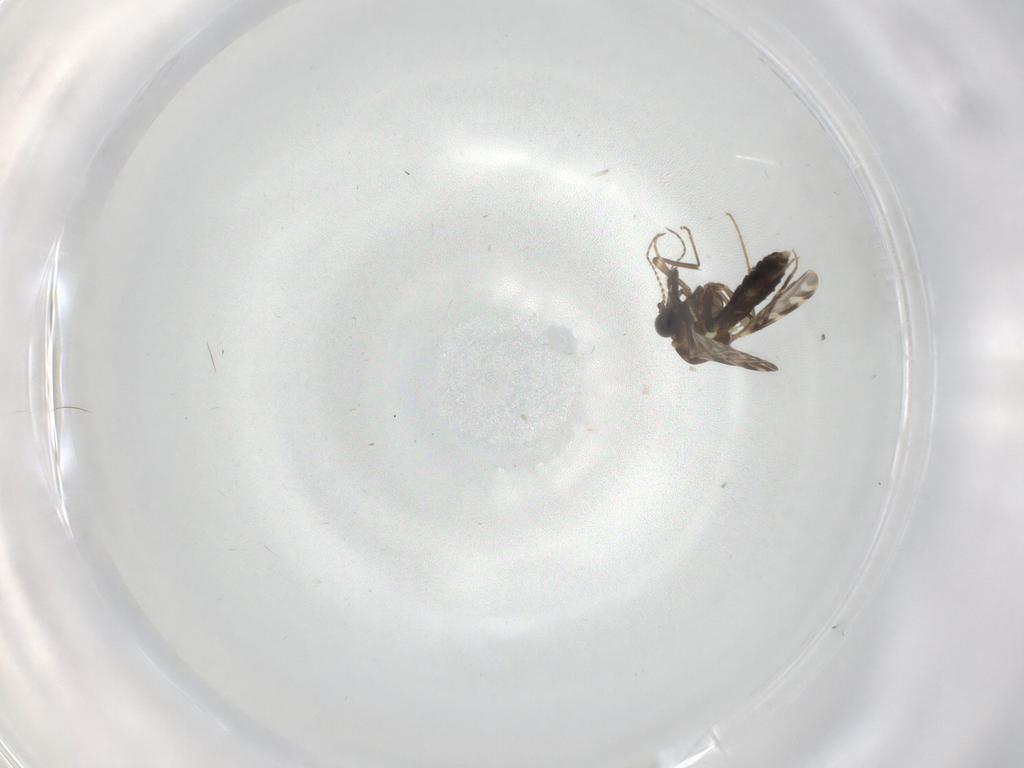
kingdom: Animalia
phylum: Arthropoda
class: Insecta
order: Diptera
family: Ceratopogonidae
